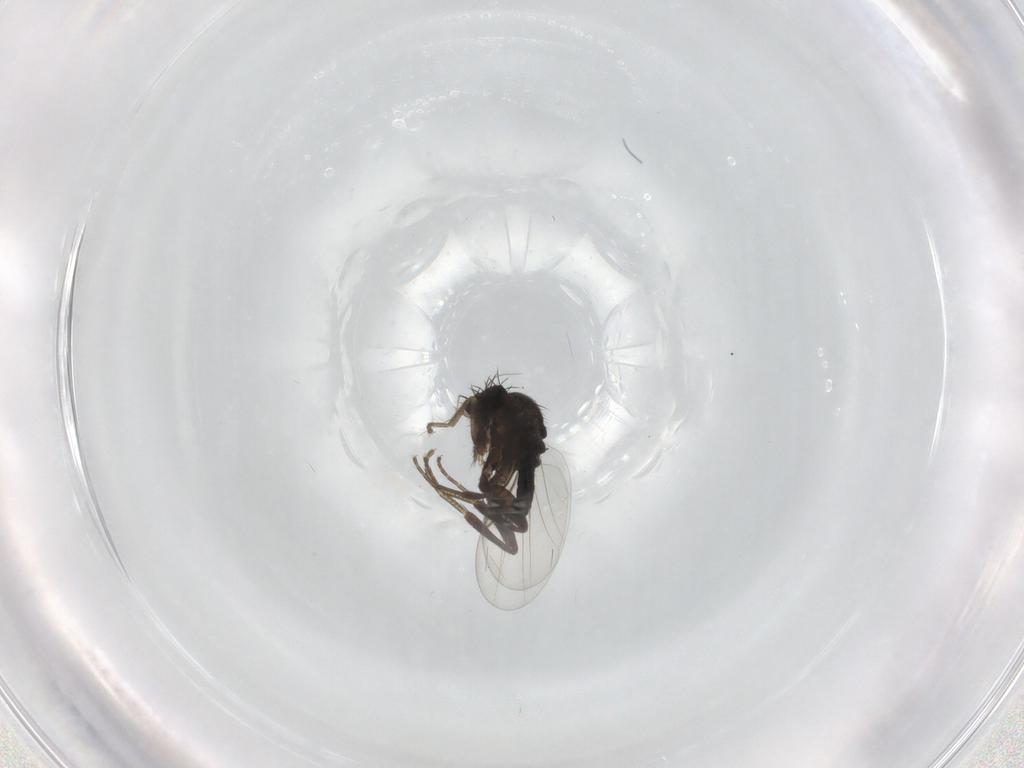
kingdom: Animalia
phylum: Arthropoda
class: Insecta
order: Diptera
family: Phoridae
